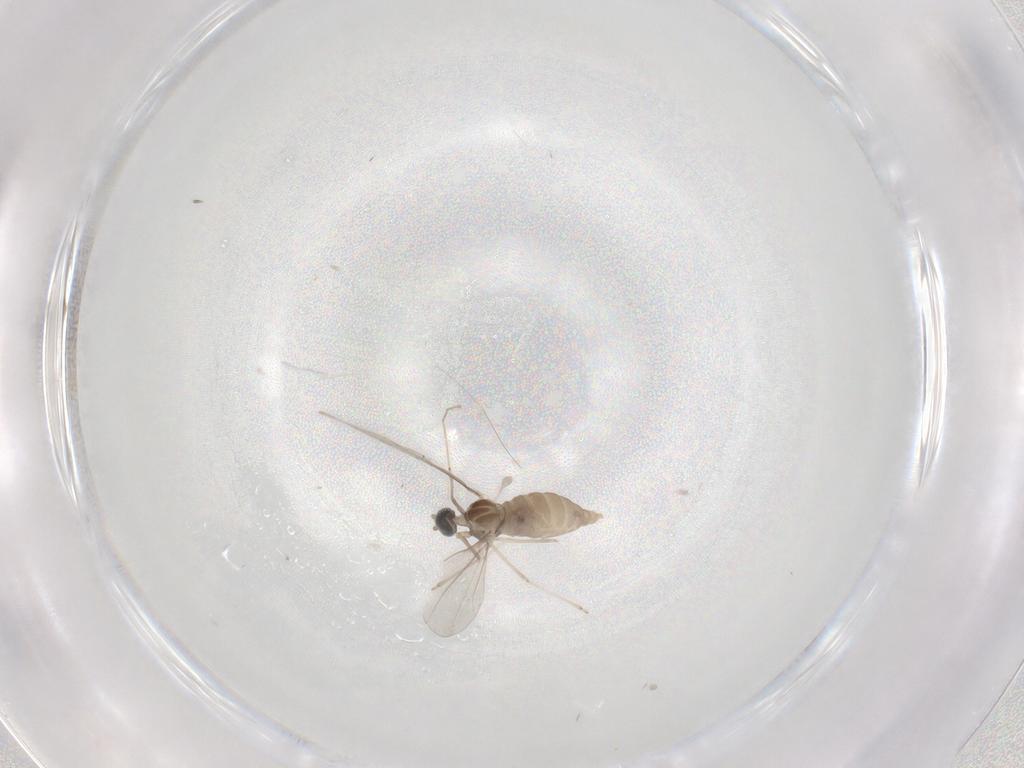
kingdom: Animalia
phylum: Arthropoda
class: Insecta
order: Diptera
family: Cecidomyiidae
